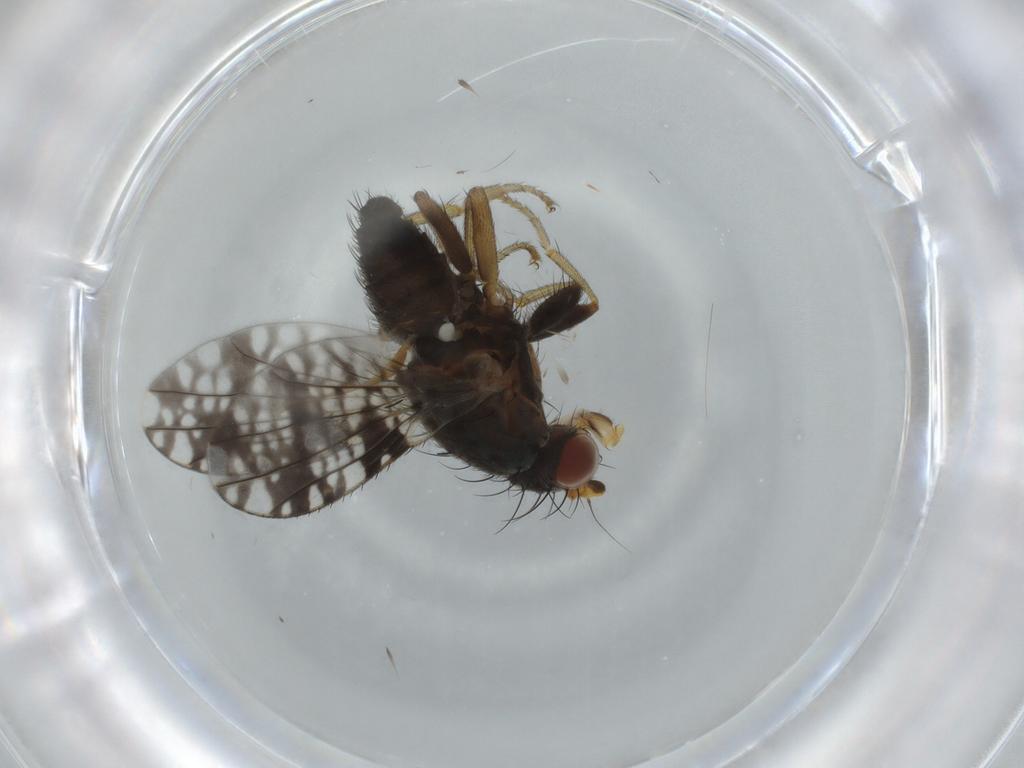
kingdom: Animalia
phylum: Arthropoda
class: Insecta
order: Diptera
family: Tephritidae
